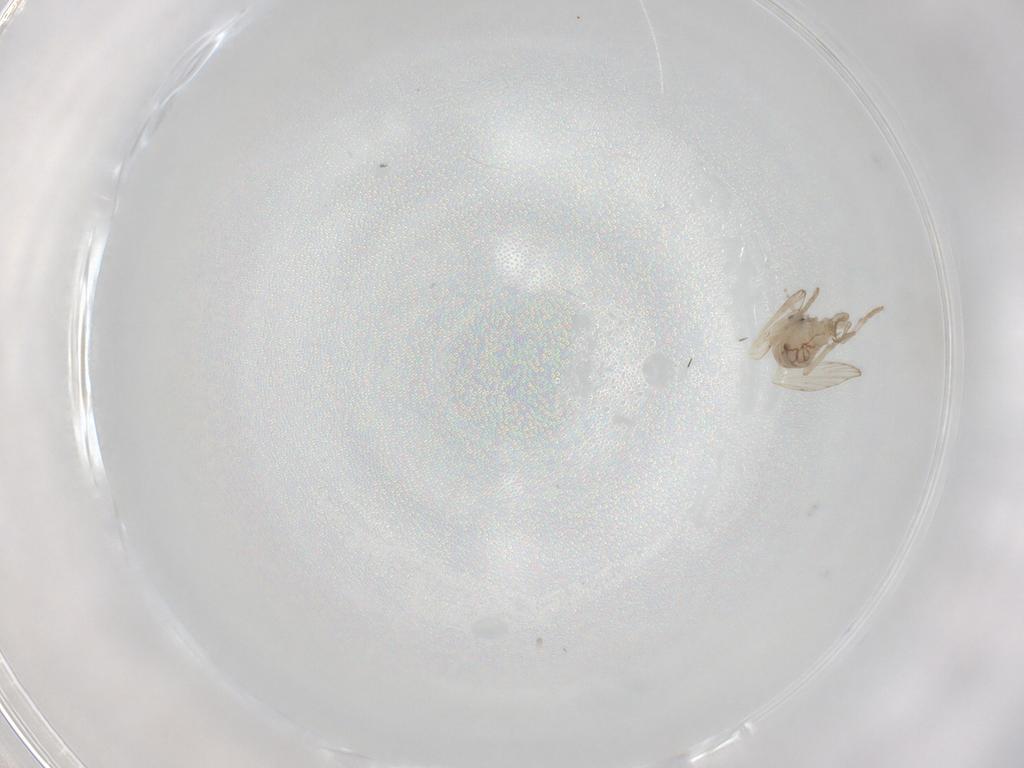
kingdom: Animalia
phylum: Arthropoda
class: Insecta
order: Diptera
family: Psychodidae
